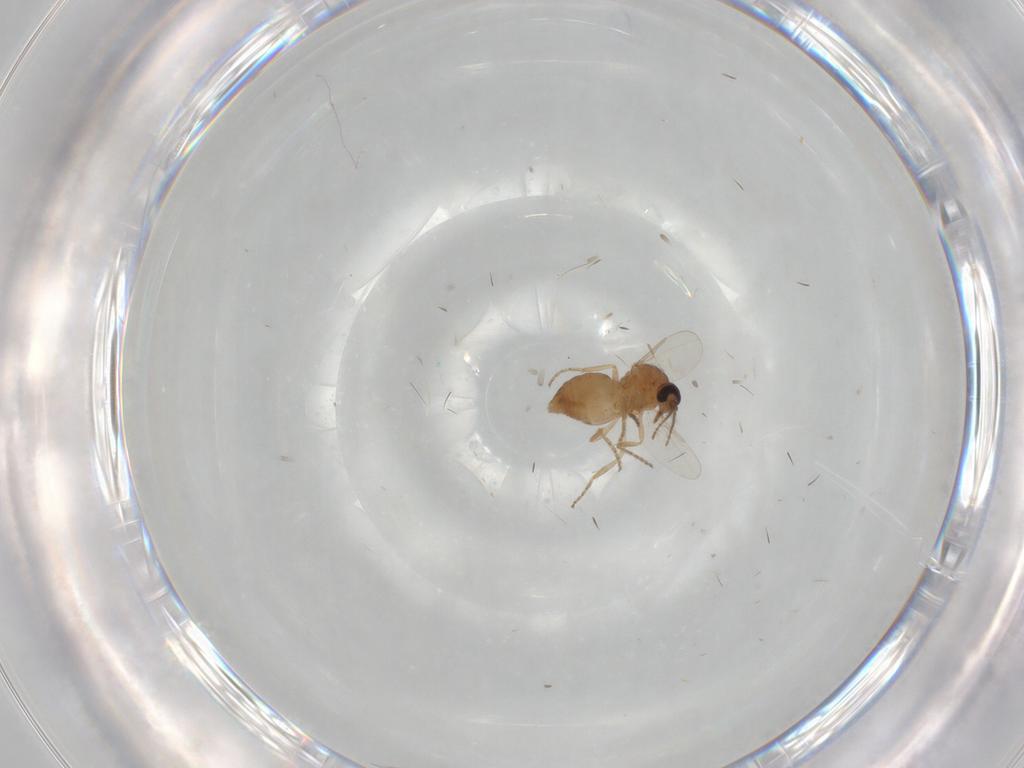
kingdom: Animalia
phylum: Arthropoda
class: Insecta
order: Diptera
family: Ceratopogonidae
